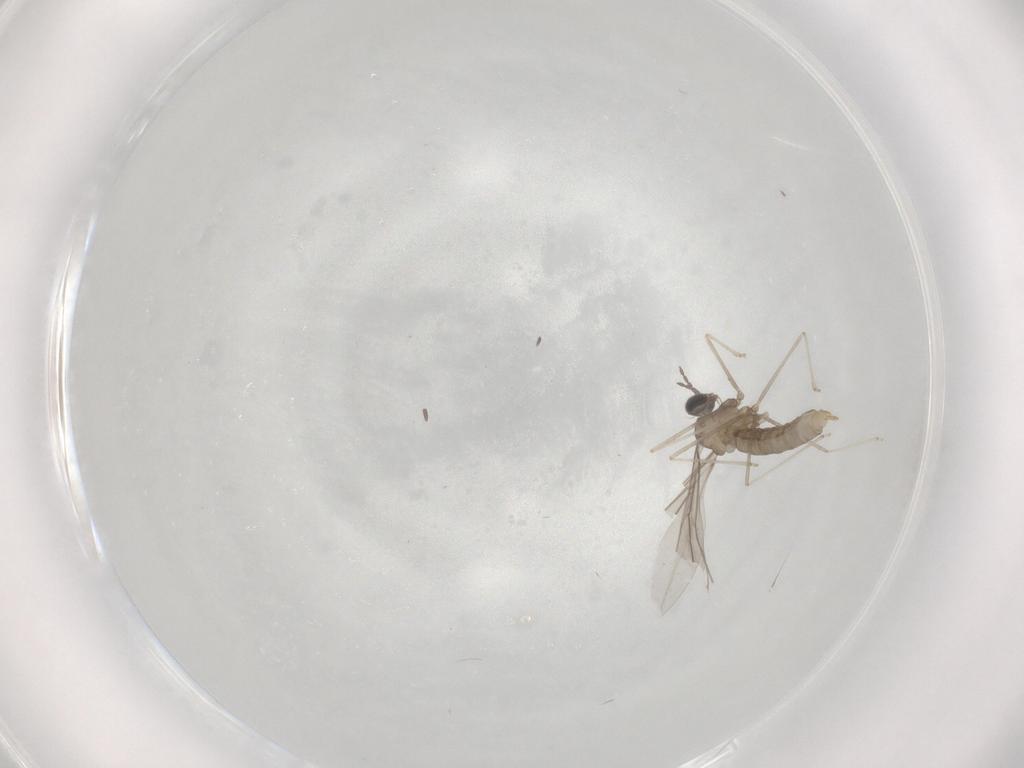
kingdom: Animalia
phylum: Arthropoda
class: Insecta
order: Diptera
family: Cecidomyiidae
